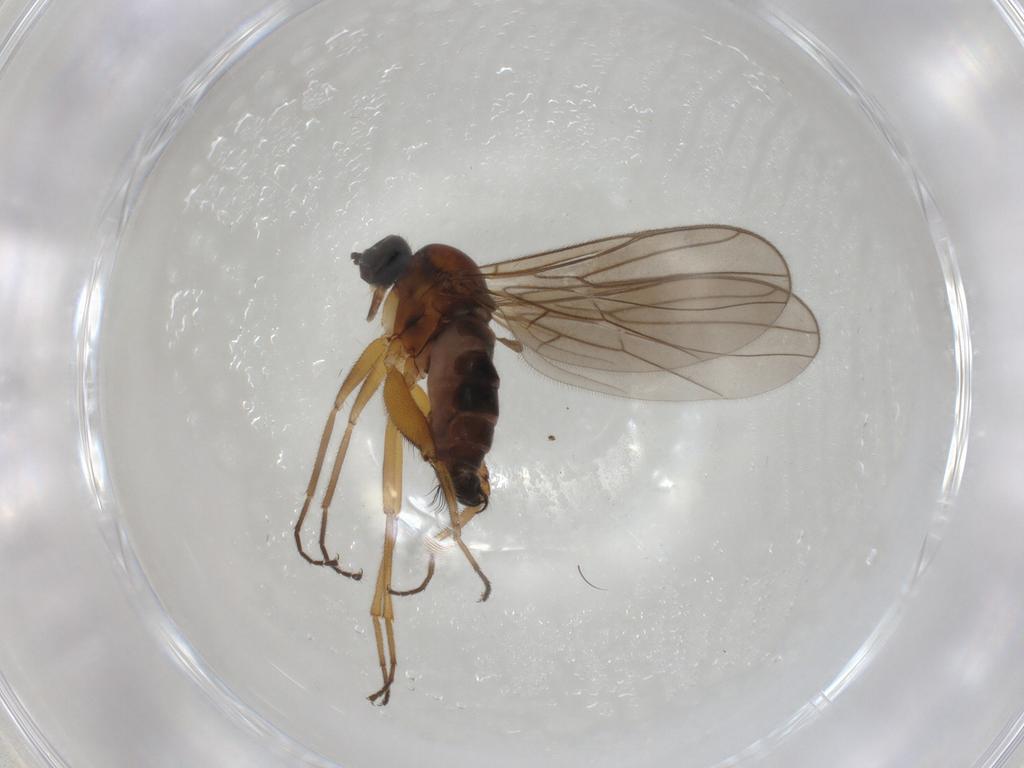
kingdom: Animalia
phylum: Arthropoda
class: Insecta
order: Diptera
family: Hybotidae
